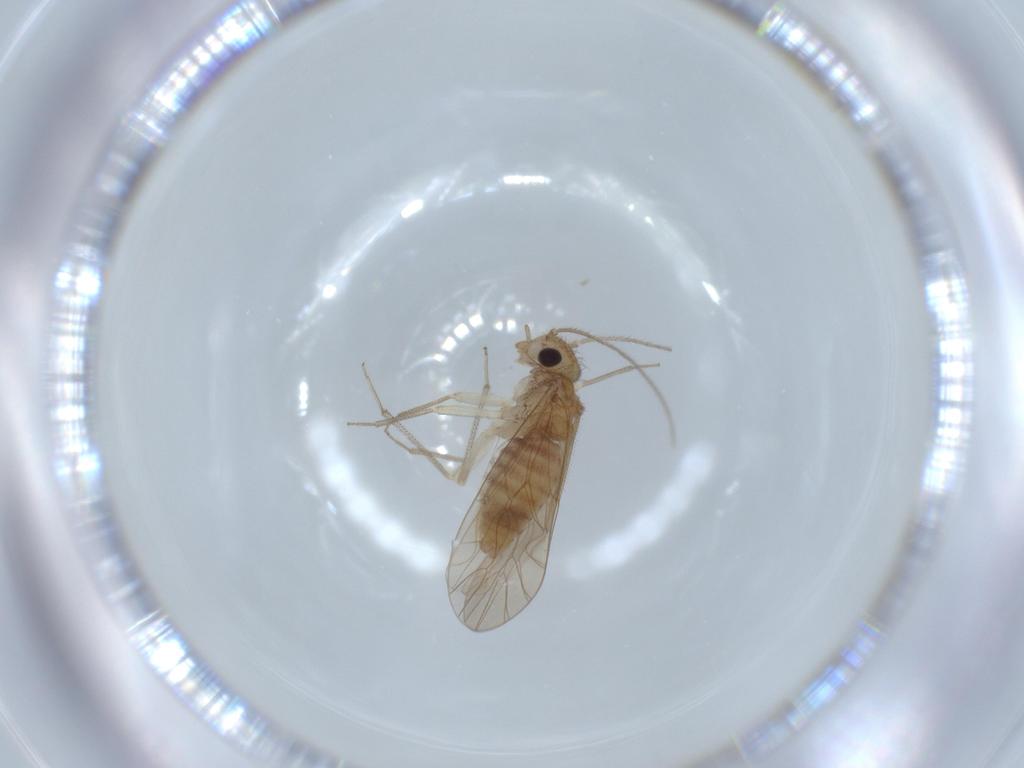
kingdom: Animalia
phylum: Arthropoda
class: Insecta
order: Psocodea
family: Caeciliusidae
